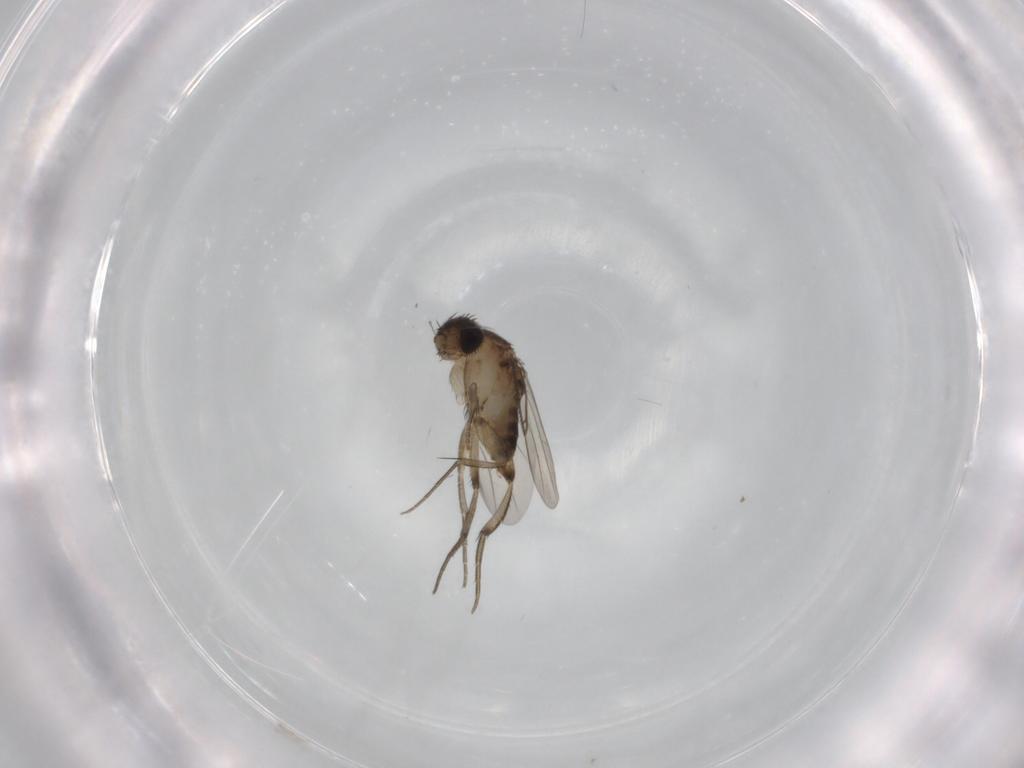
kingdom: Animalia
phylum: Arthropoda
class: Insecta
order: Diptera
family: Phoridae
